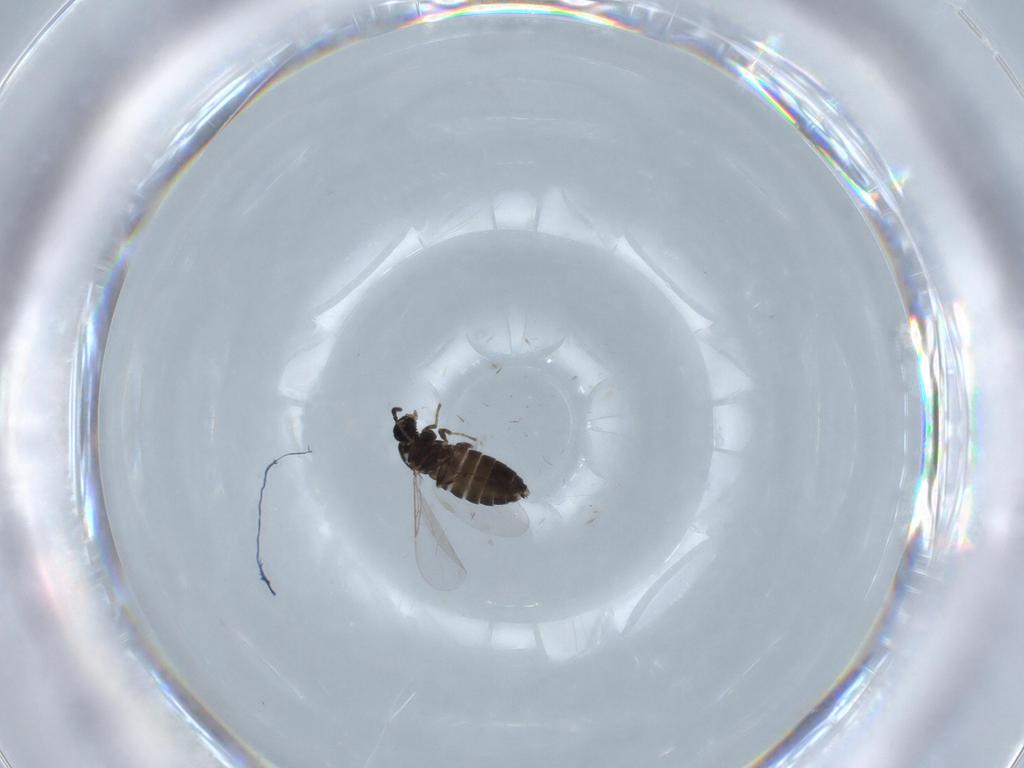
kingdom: Animalia
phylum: Arthropoda
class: Insecta
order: Diptera
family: Scatopsidae
